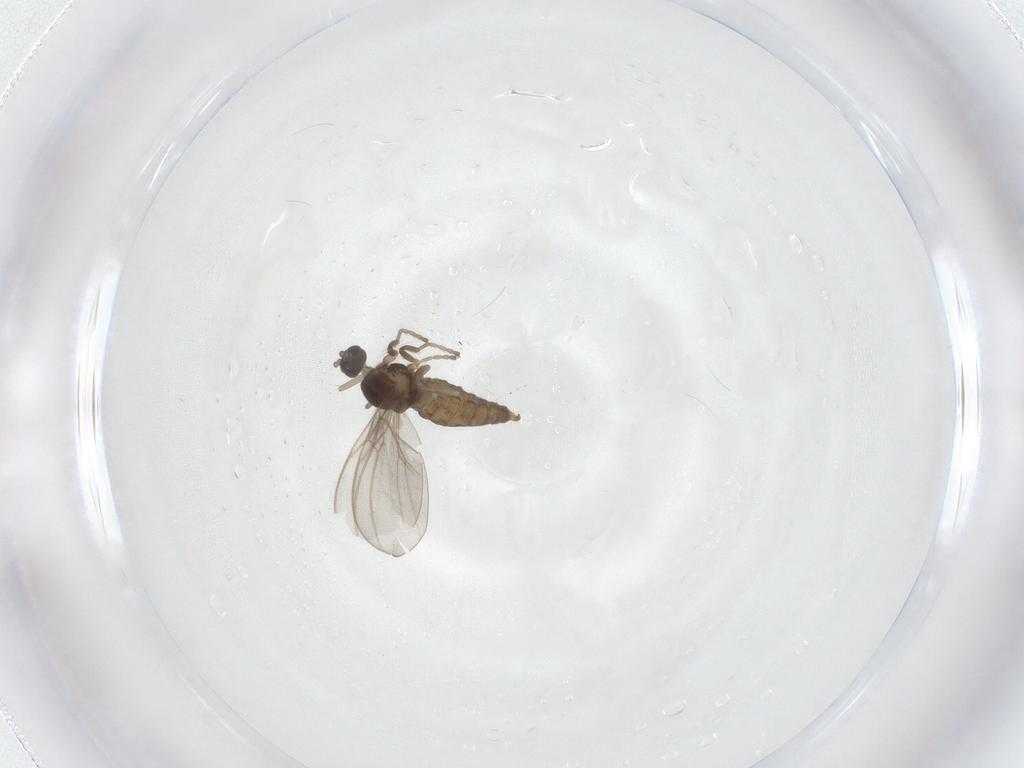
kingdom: Animalia
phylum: Arthropoda
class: Insecta
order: Diptera
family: Cecidomyiidae
